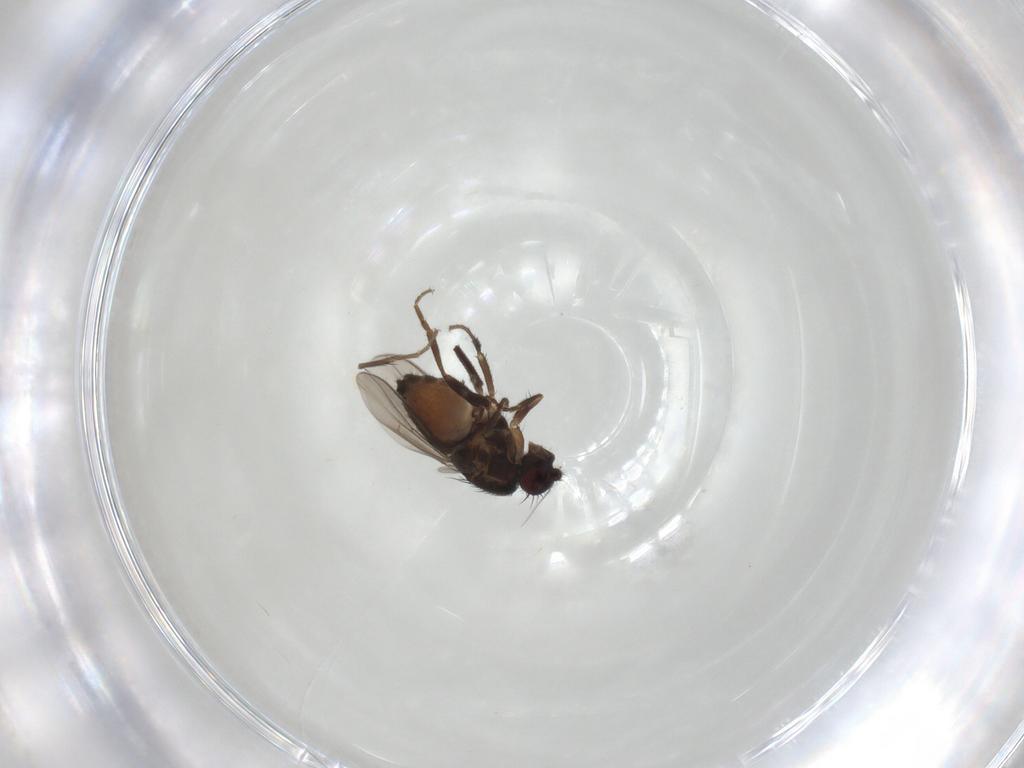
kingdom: Animalia
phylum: Arthropoda
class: Insecta
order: Diptera
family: Sphaeroceridae
